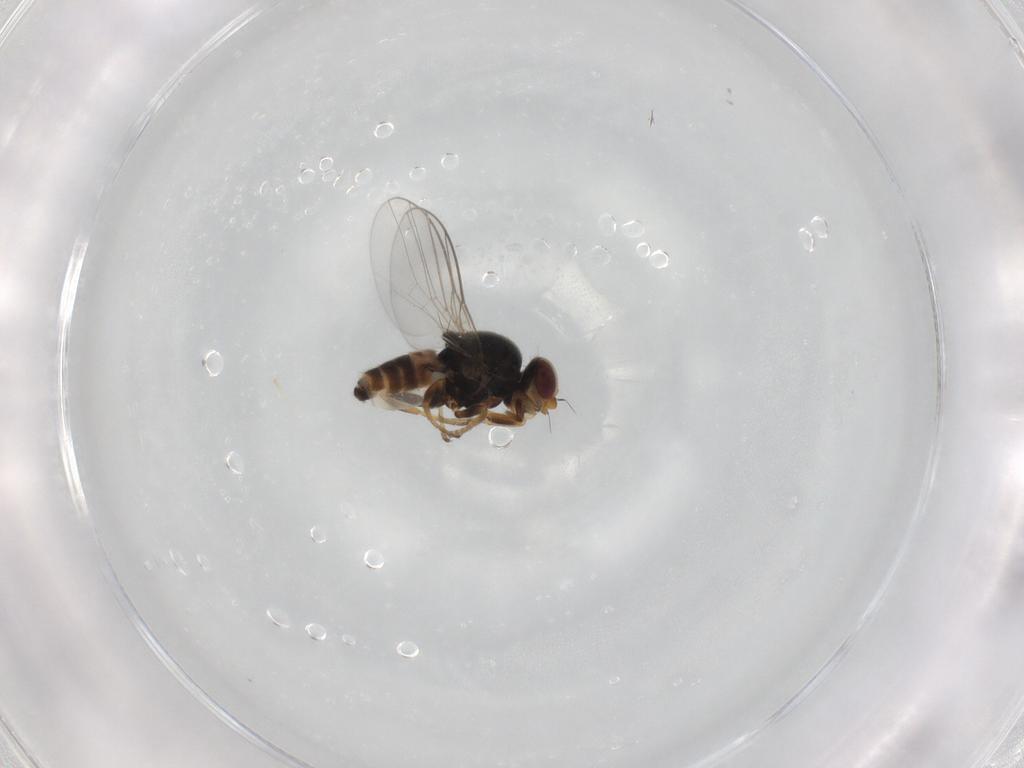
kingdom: Animalia
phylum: Arthropoda
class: Insecta
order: Diptera
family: Chloropidae
